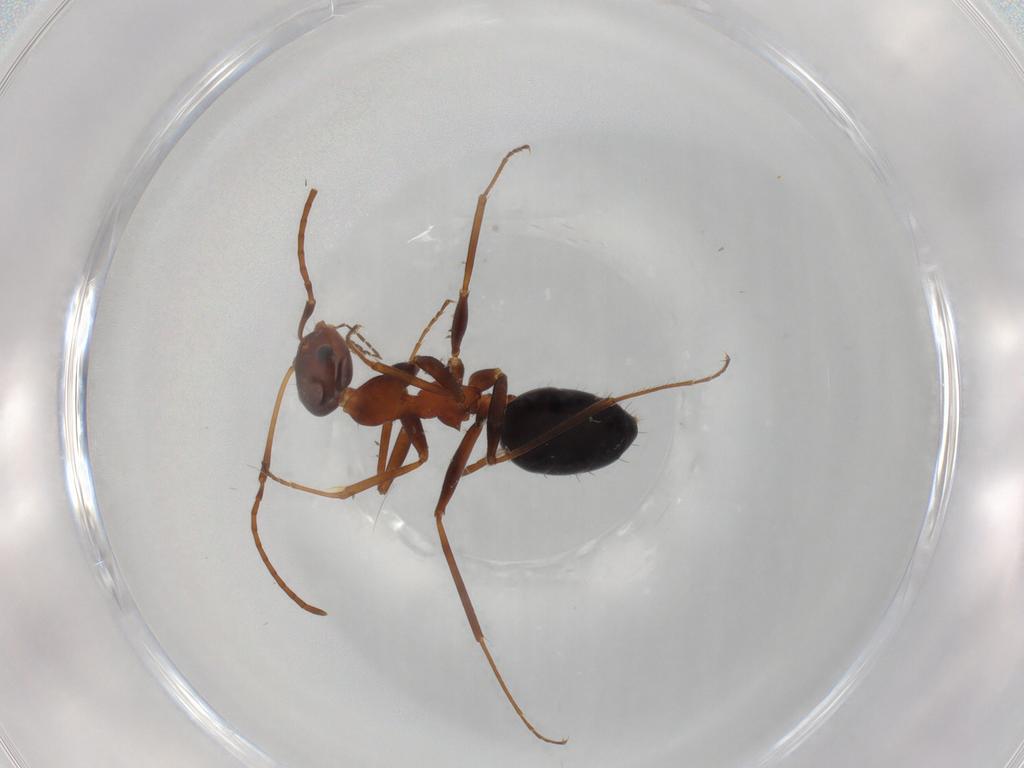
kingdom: Animalia
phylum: Arthropoda
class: Insecta
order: Hymenoptera
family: Formicidae
